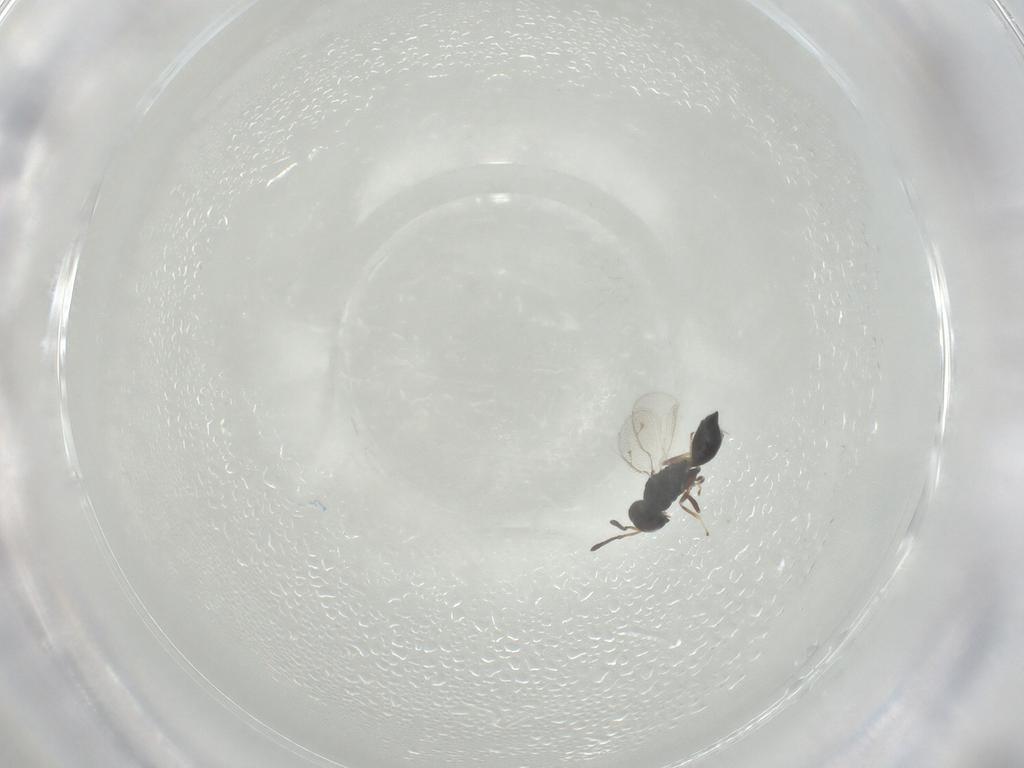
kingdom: Animalia
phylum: Arthropoda
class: Insecta
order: Hymenoptera
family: Pteromalidae
